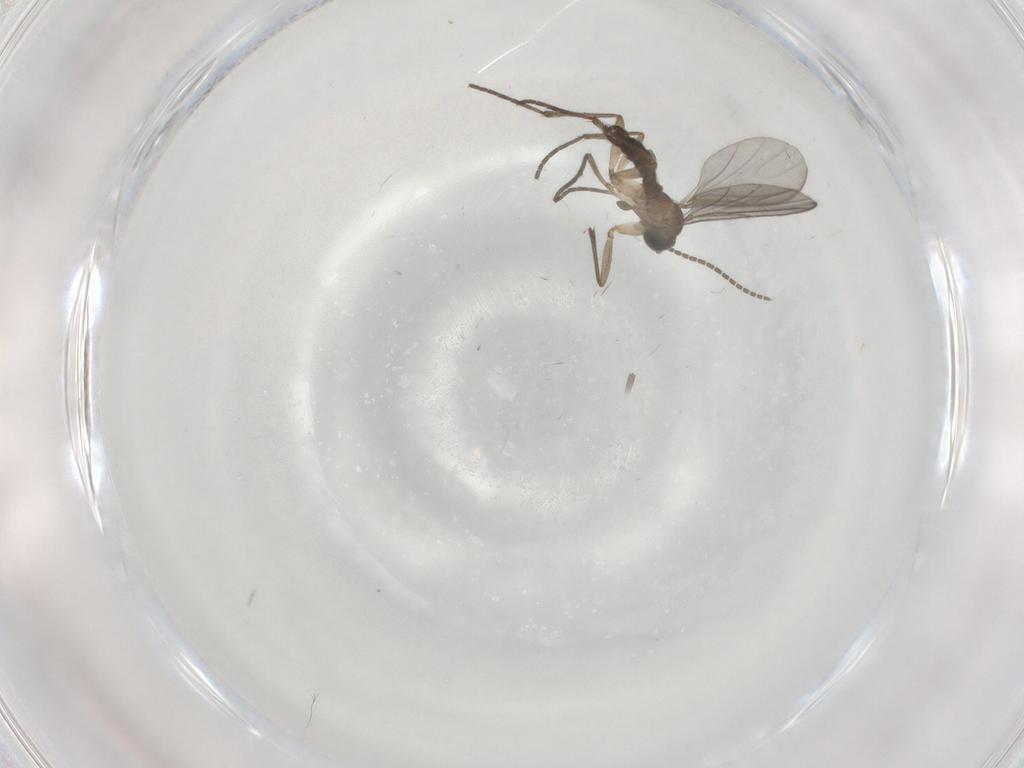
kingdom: Animalia
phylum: Arthropoda
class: Insecta
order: Diptera
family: Sciaridae
